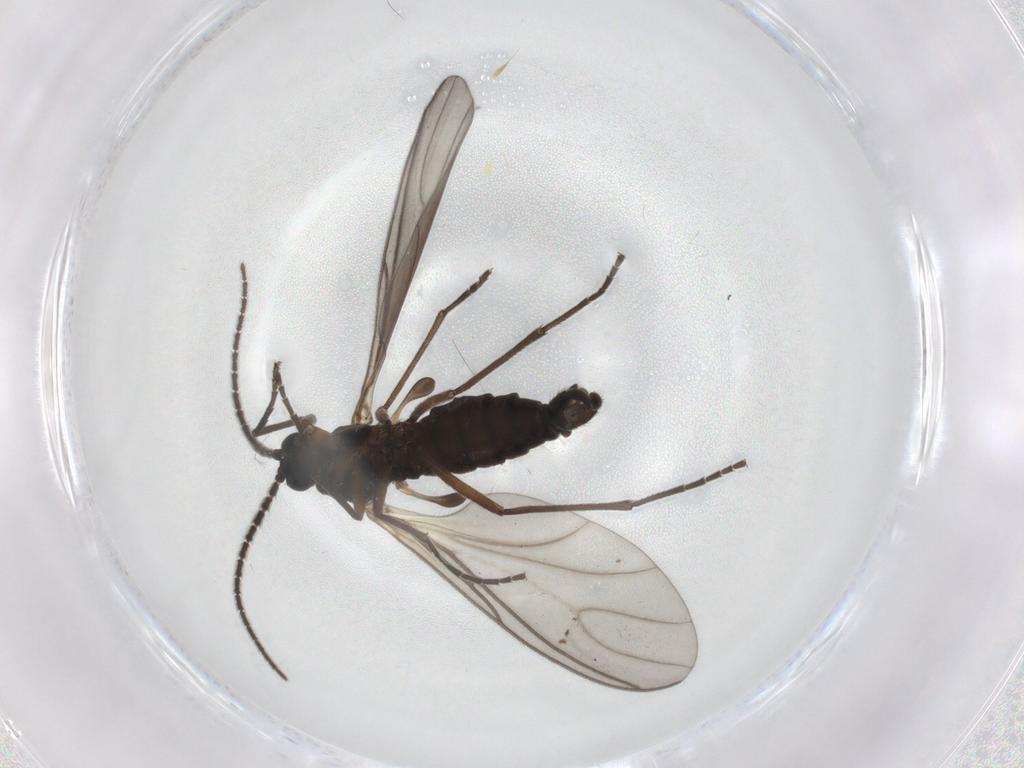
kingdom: Animalia
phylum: Arthropoda
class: Insecta
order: Diptera
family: Sciaridae
